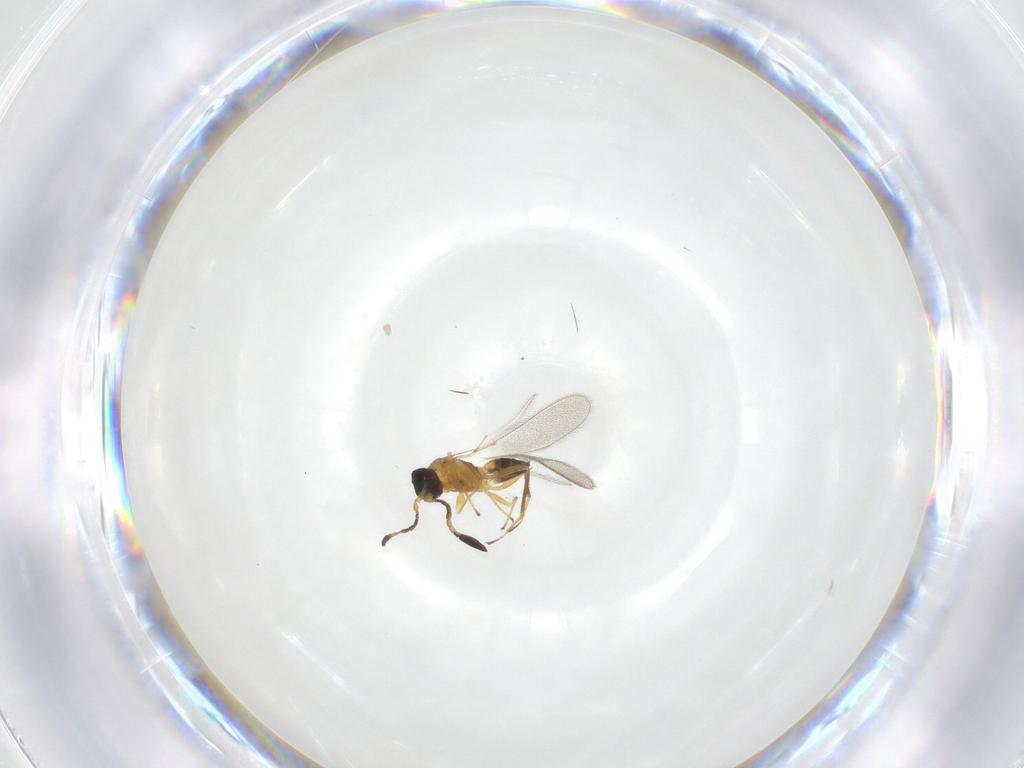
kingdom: Animalia
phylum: Arthropoda
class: Insecta
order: Hymenoptera
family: Mymaridae
